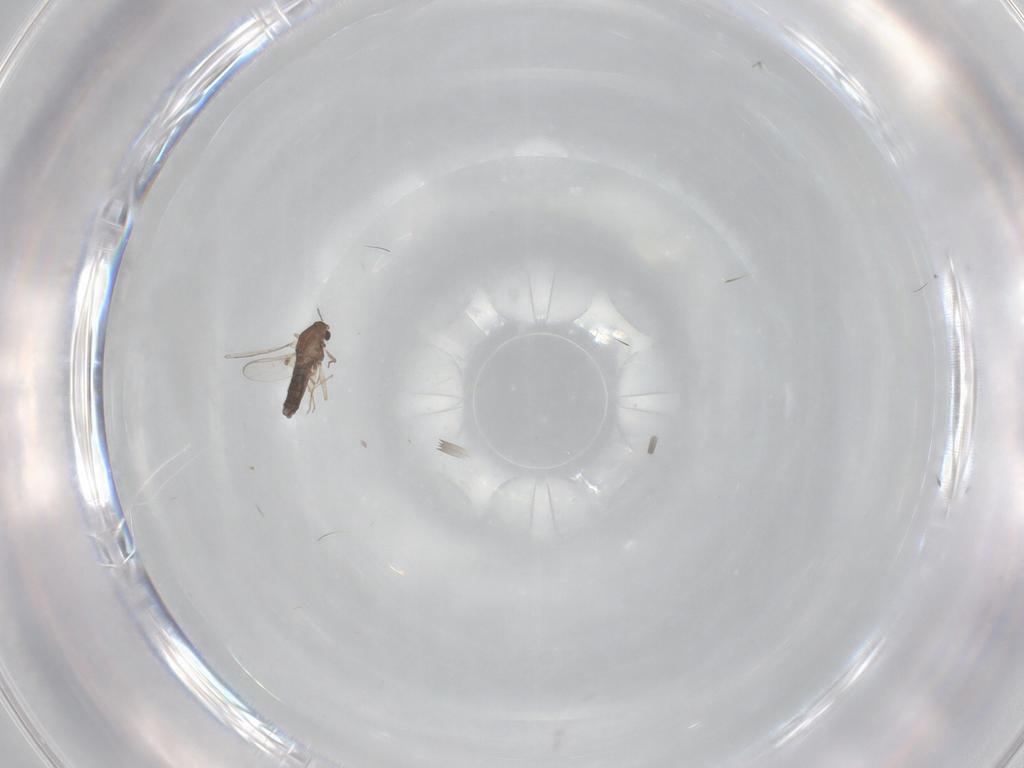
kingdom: Animalia
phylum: Arthropoda
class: Insecta
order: Diptera
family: Chironomidae
